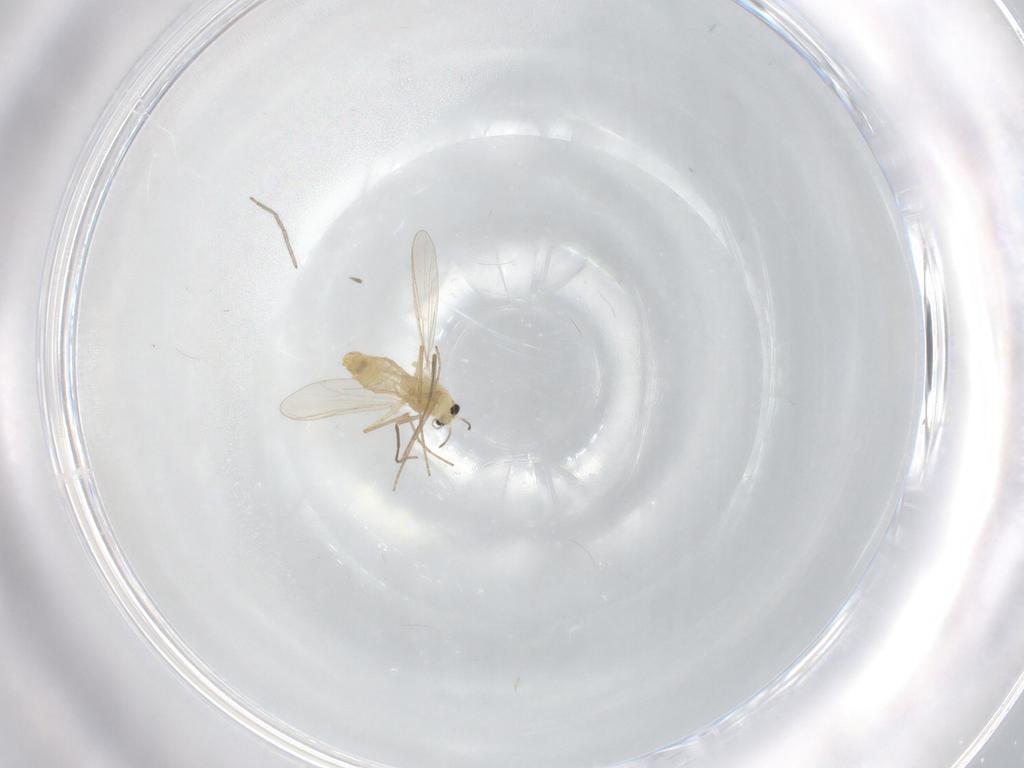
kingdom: Animalia
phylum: Arthropoda
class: Insecta
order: Diptera
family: Chironomidae
